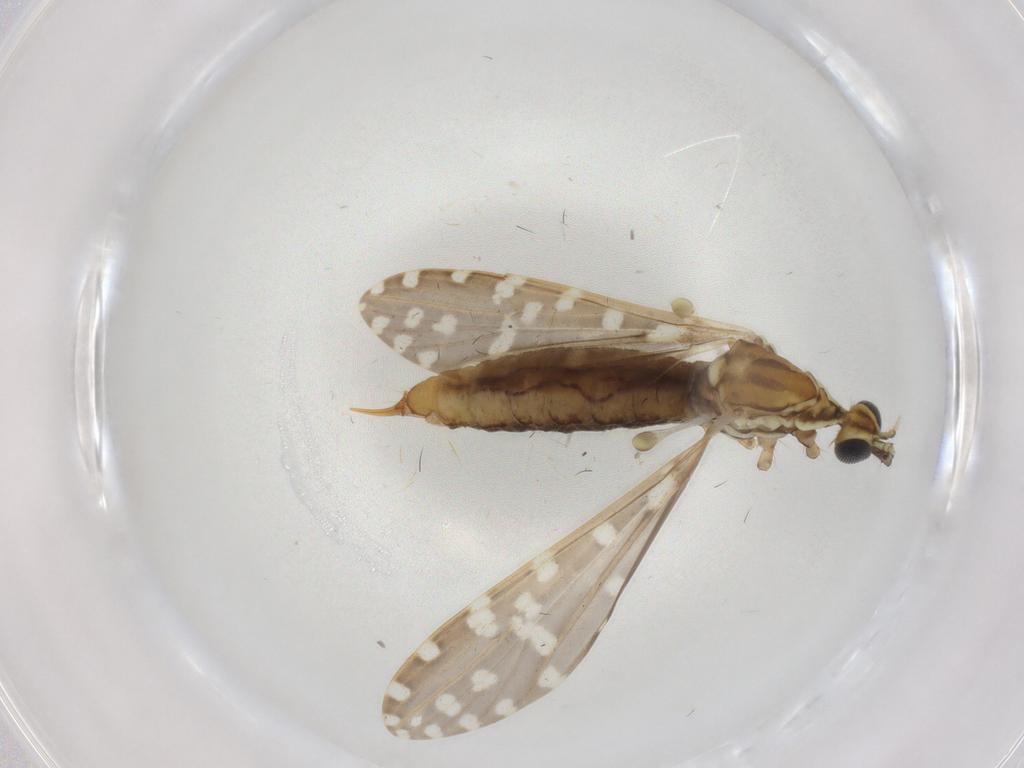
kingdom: Animalia
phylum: Arthropoda
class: Insecta
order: Diptera
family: Limoniidae
